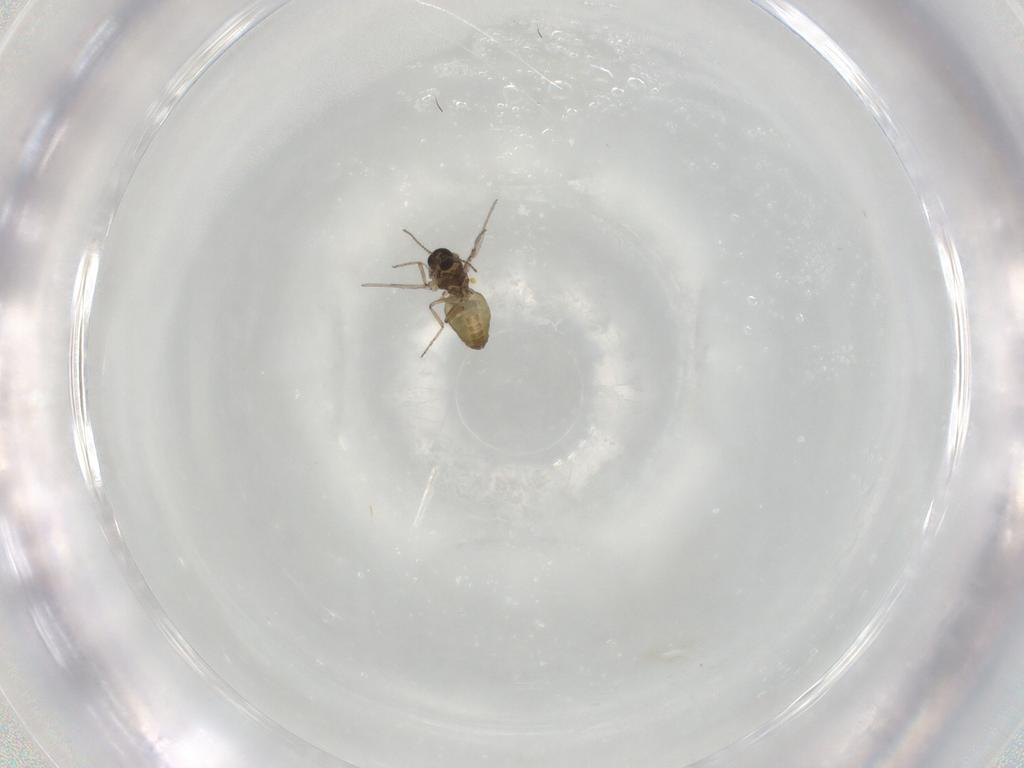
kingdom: Animalia
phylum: Arthropoda
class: Insecta
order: Diptera
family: Ceratopogonidae
